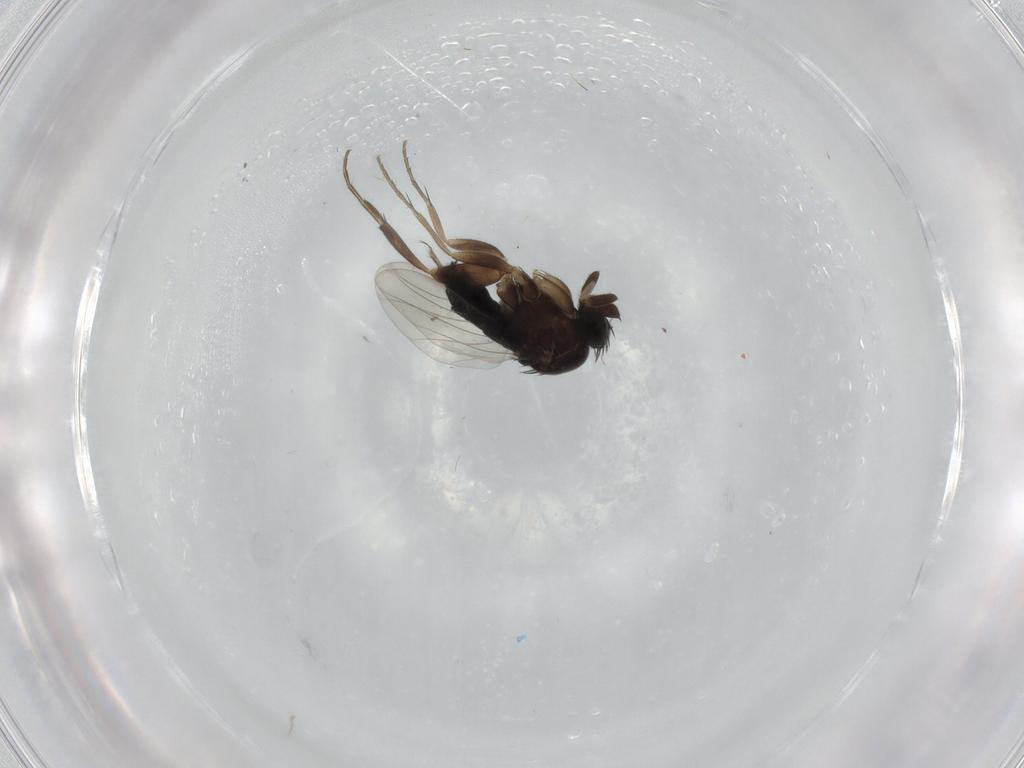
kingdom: Animalia
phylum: Arthropoda
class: Insecta
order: Diptera
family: Phoridae
